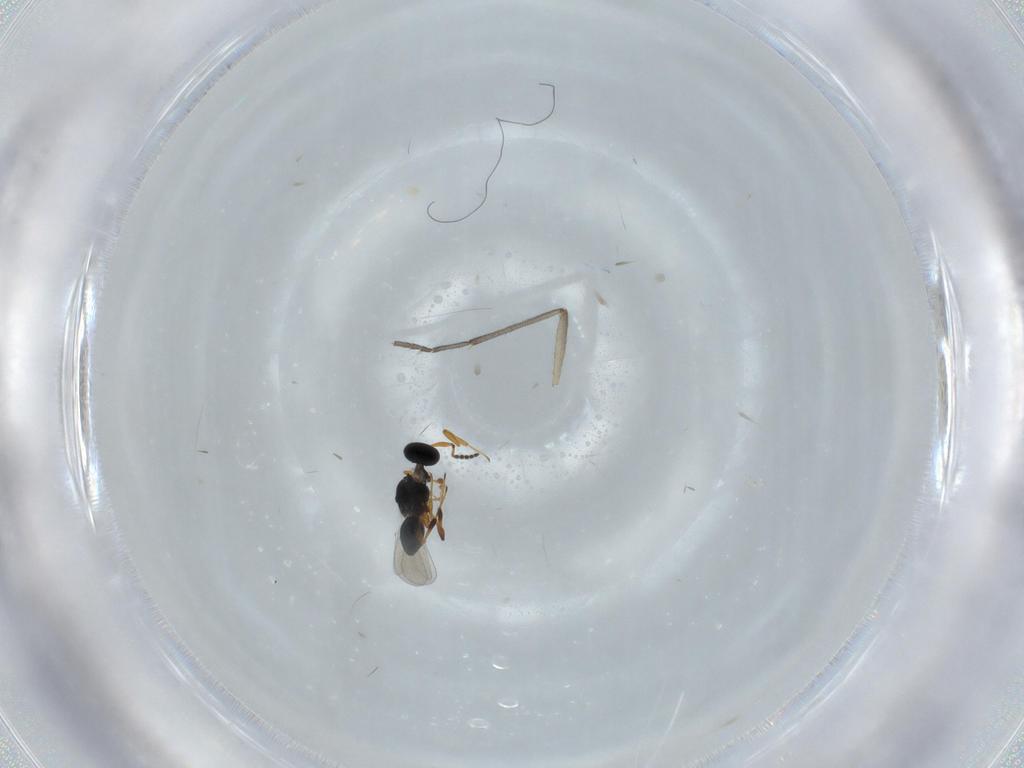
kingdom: Animalia
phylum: Arthropoda
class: Insecta
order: Hymenoptera
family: Platygastridae
